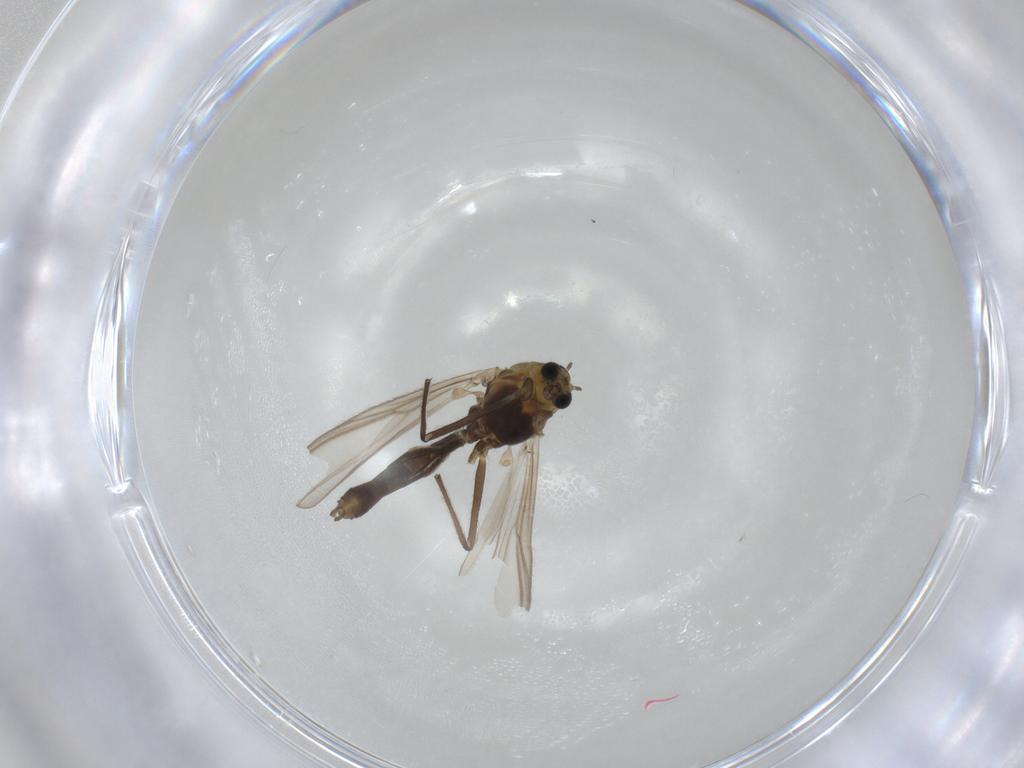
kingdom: Animalia
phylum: Arthropoda
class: Insecta
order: Diptera
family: Chironomidae
